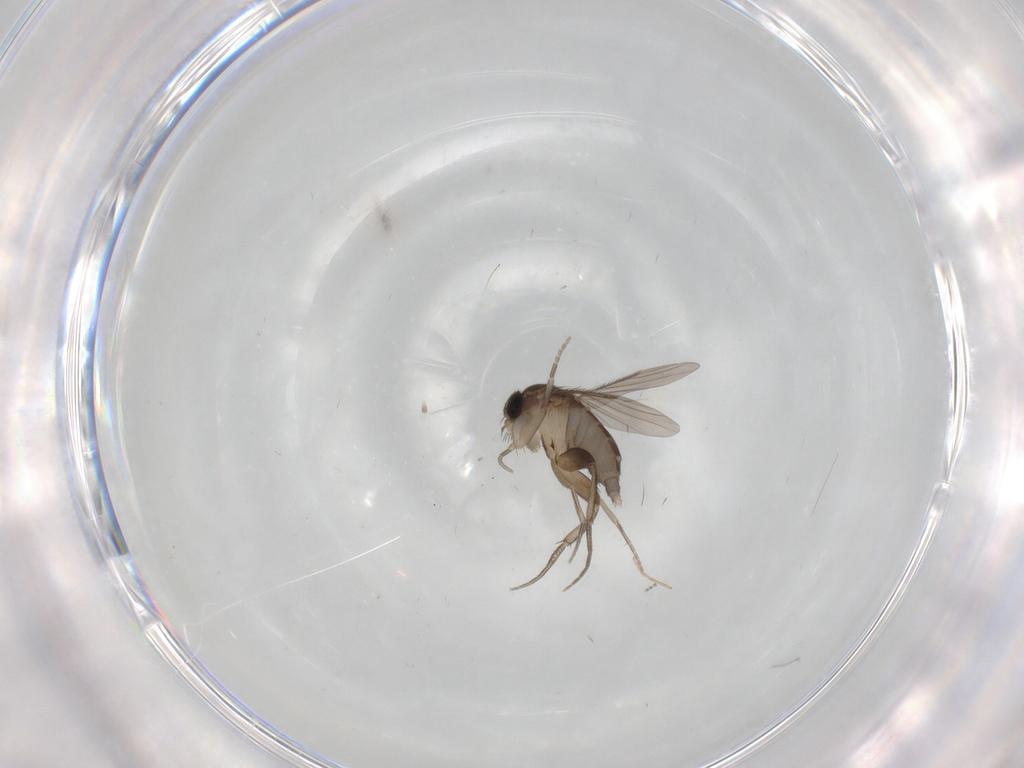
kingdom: Animalia
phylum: Arthropoda
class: Insecta
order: Diptera
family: Phoridae
